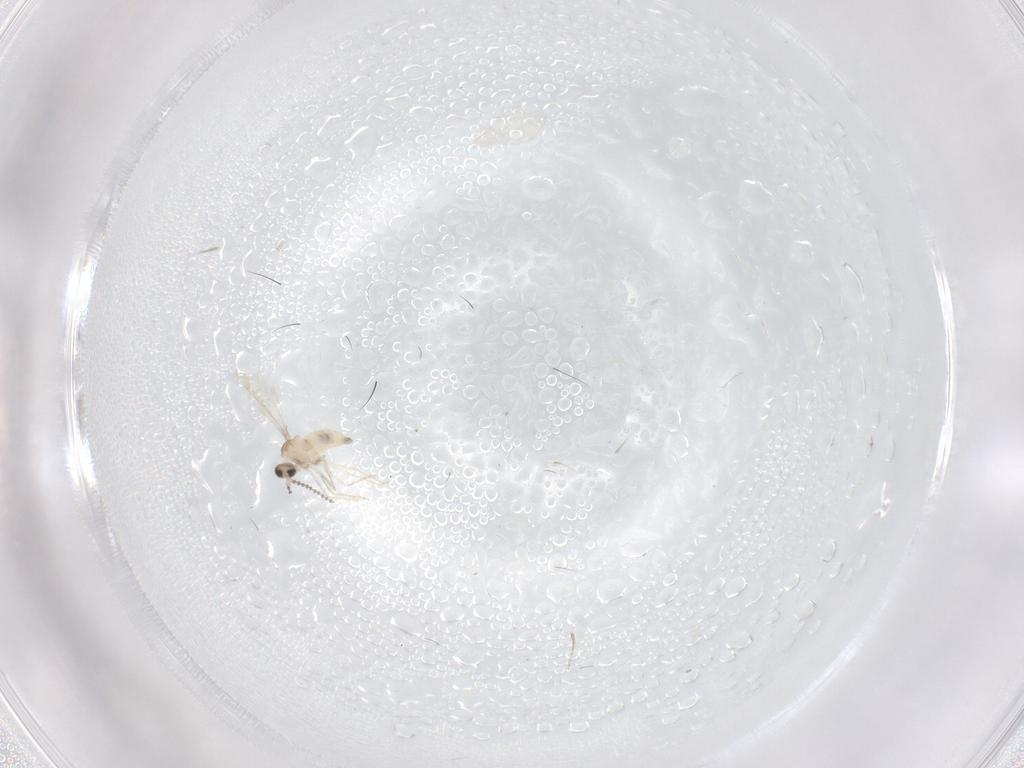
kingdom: Animalia
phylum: Arthropoda
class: Insecta
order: Diptera
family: Cecidomyiidae
